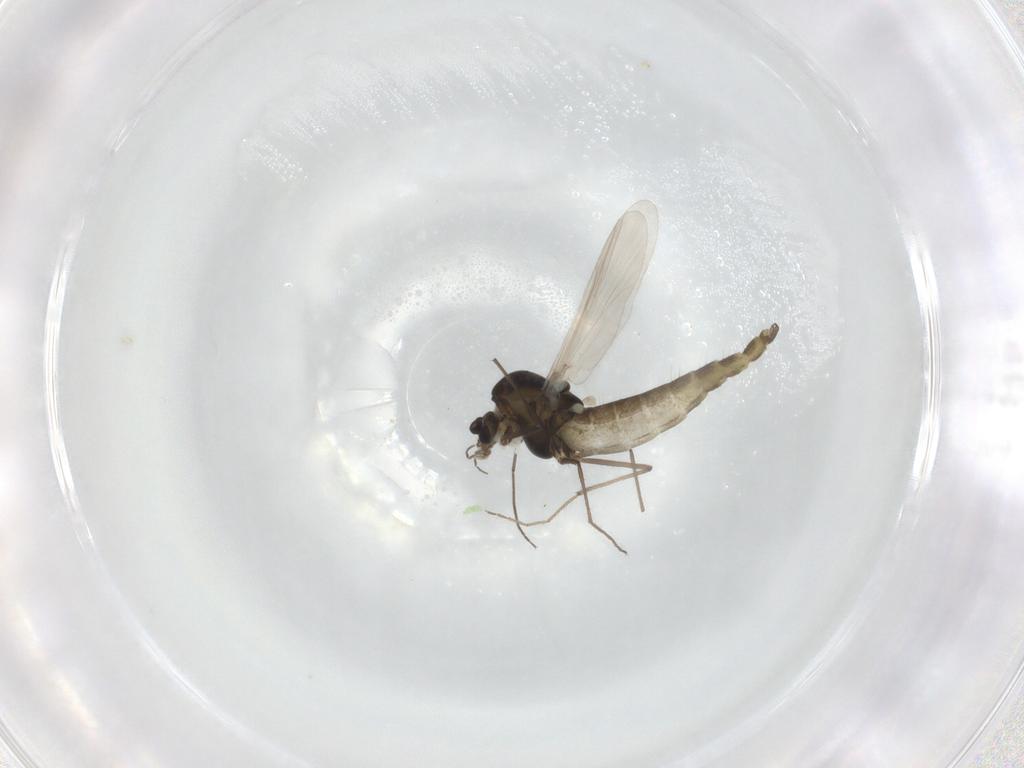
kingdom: Animalia
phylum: Arthropoda
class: Insecta
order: Diptera
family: Chironomidae
